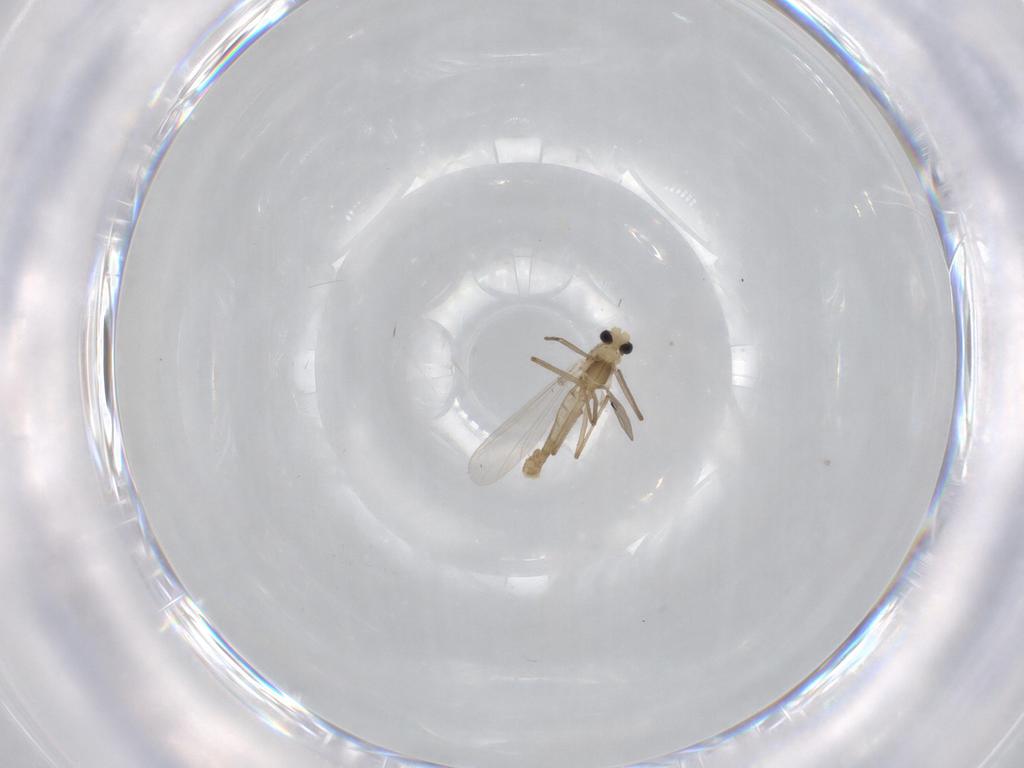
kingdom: Animalia
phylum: Arthropoda
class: Insecta
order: Diptera
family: Chironomidae
